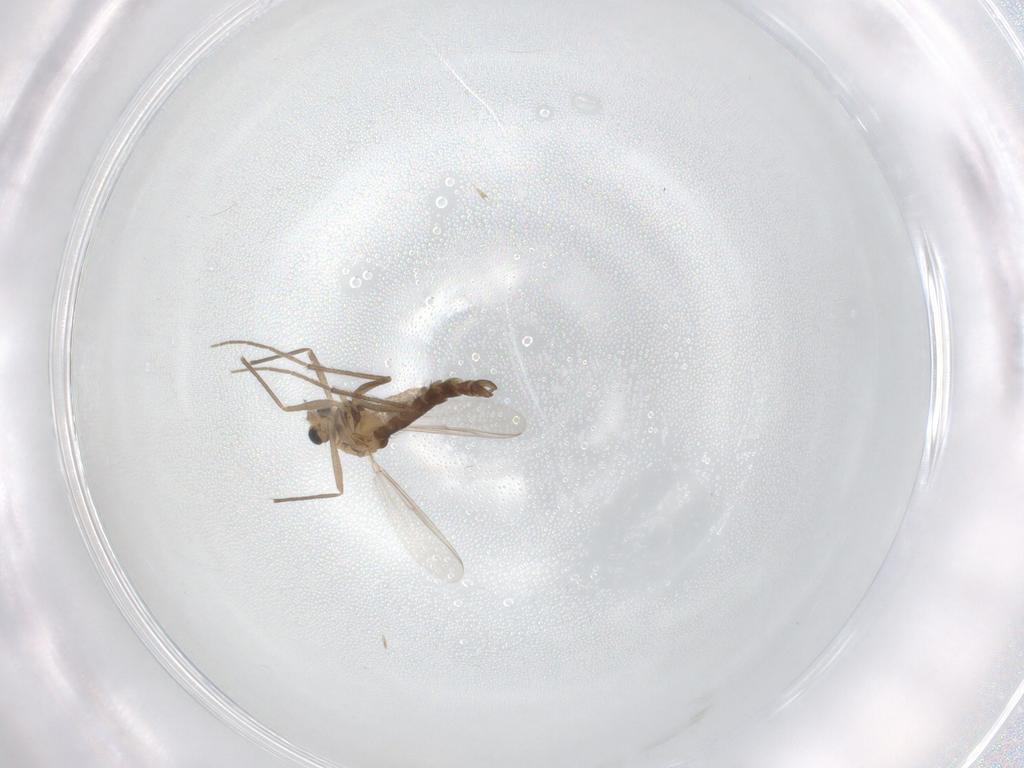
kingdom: Animalia
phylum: Arthropoda
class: Insecta
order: Diptera
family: Chironomidae
